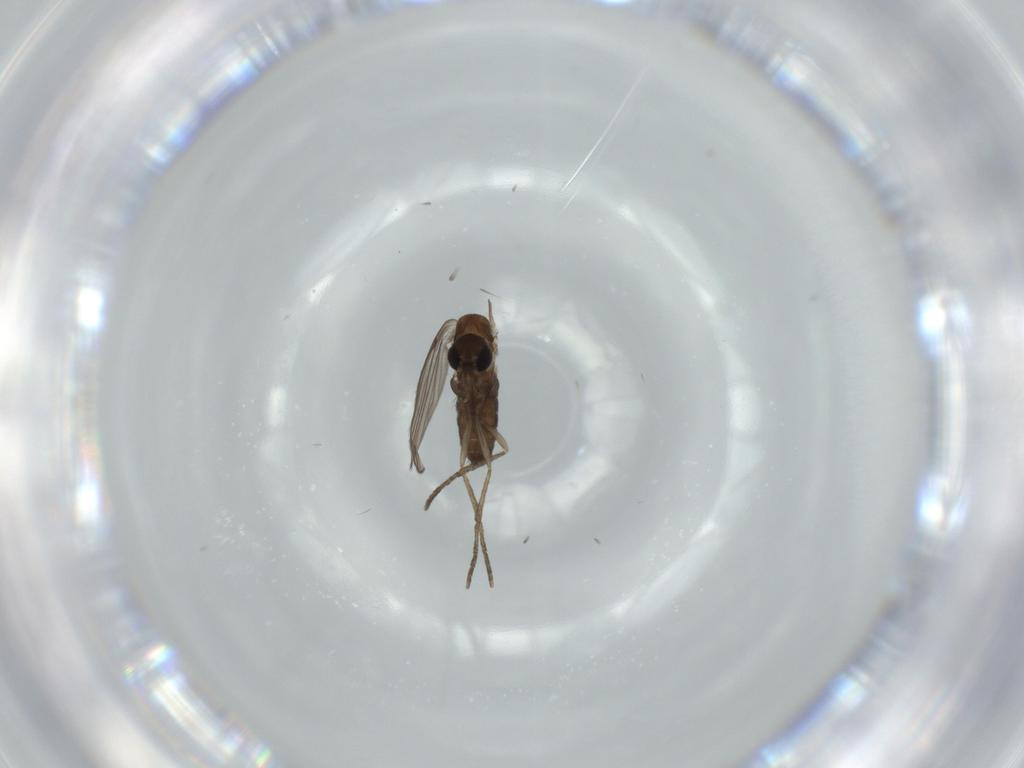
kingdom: Animalia
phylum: Arthropoda
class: Insecta
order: Diptera
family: Psychodidae
